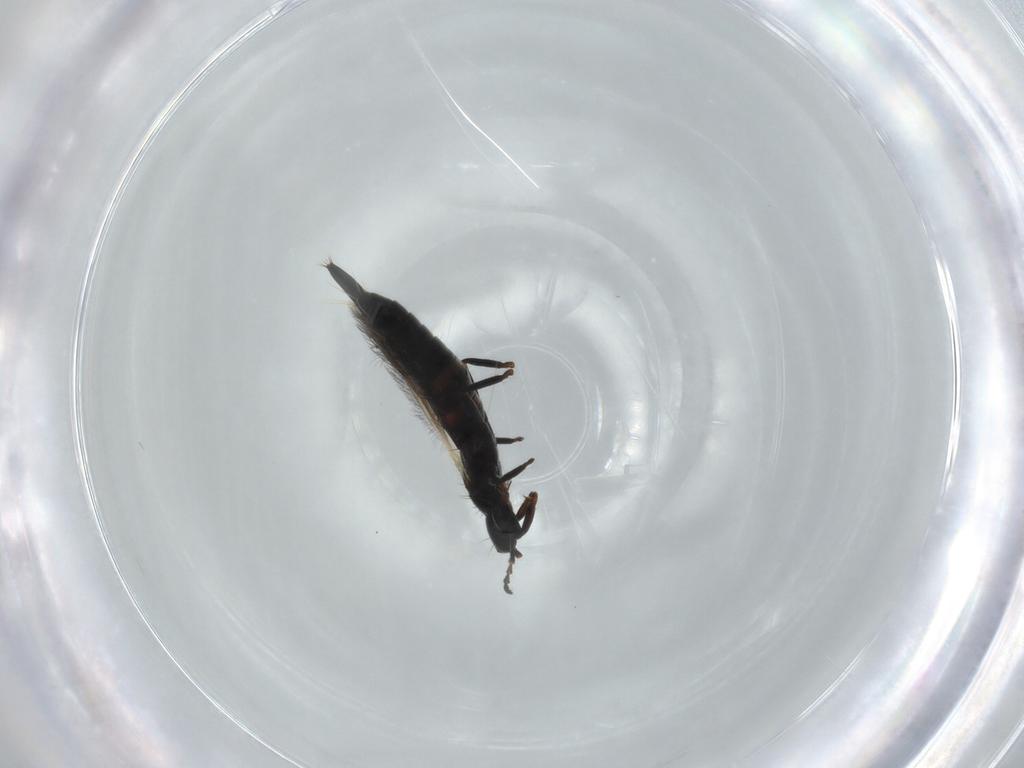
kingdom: Animalia
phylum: Arthropoda
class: Insecta
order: Thysanoptera
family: Phlaeothripidae
